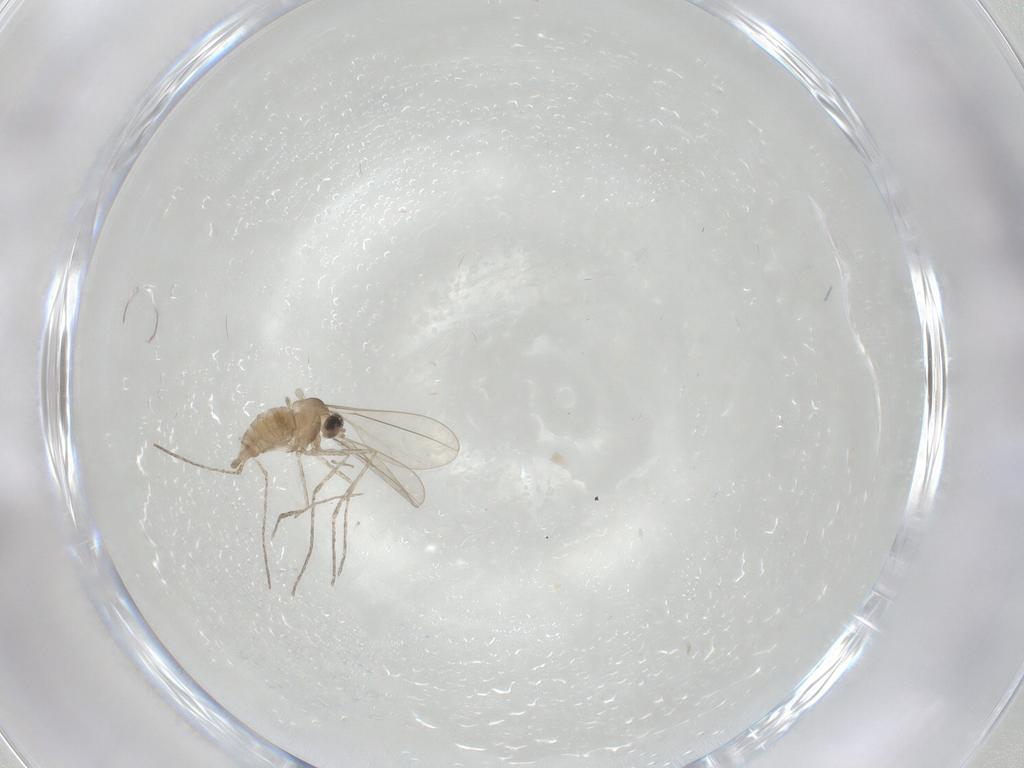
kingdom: Animalia
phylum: Arthropoda
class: Insecta
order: Diptera
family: Cecidomyiidae
